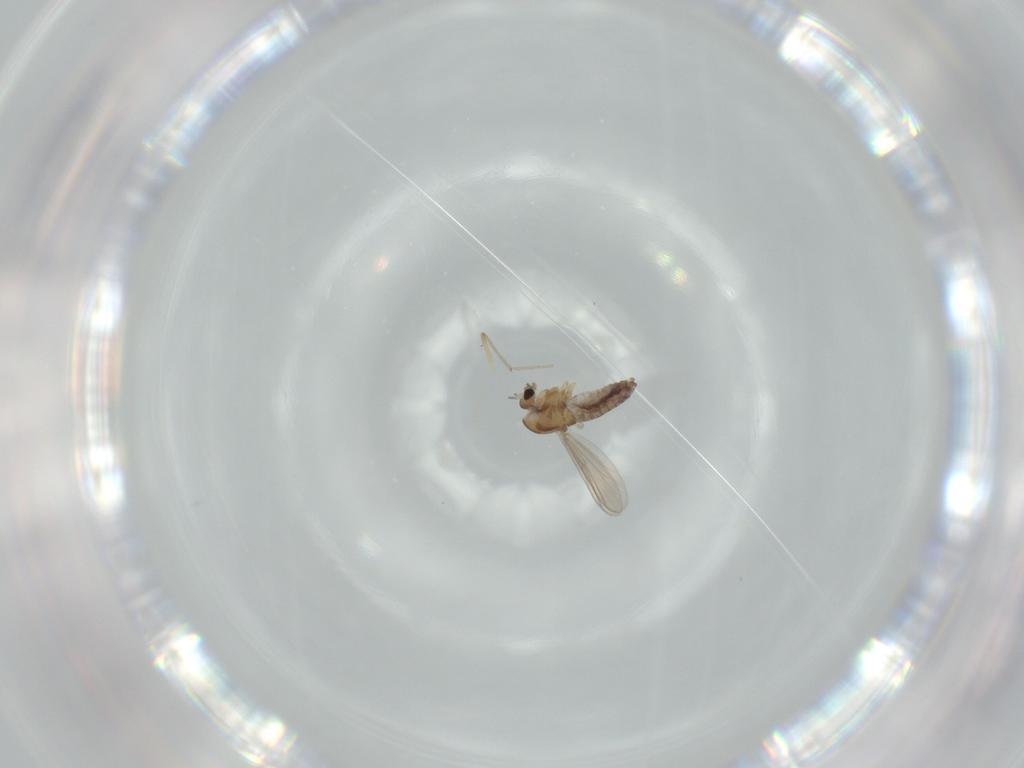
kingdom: Animalia
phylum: Arthropoda
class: Insecta
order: Diptera
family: Chironomidae
